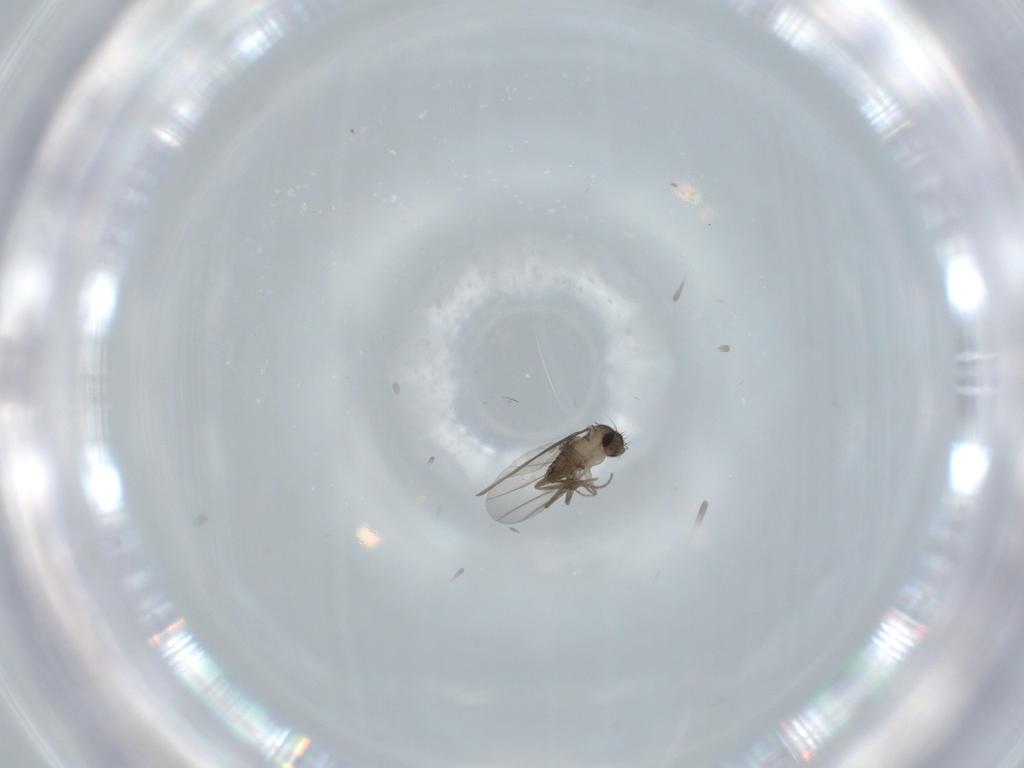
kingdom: Animalia
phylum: Arthropoda
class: Insecta
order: Diptera
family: Phoridae
